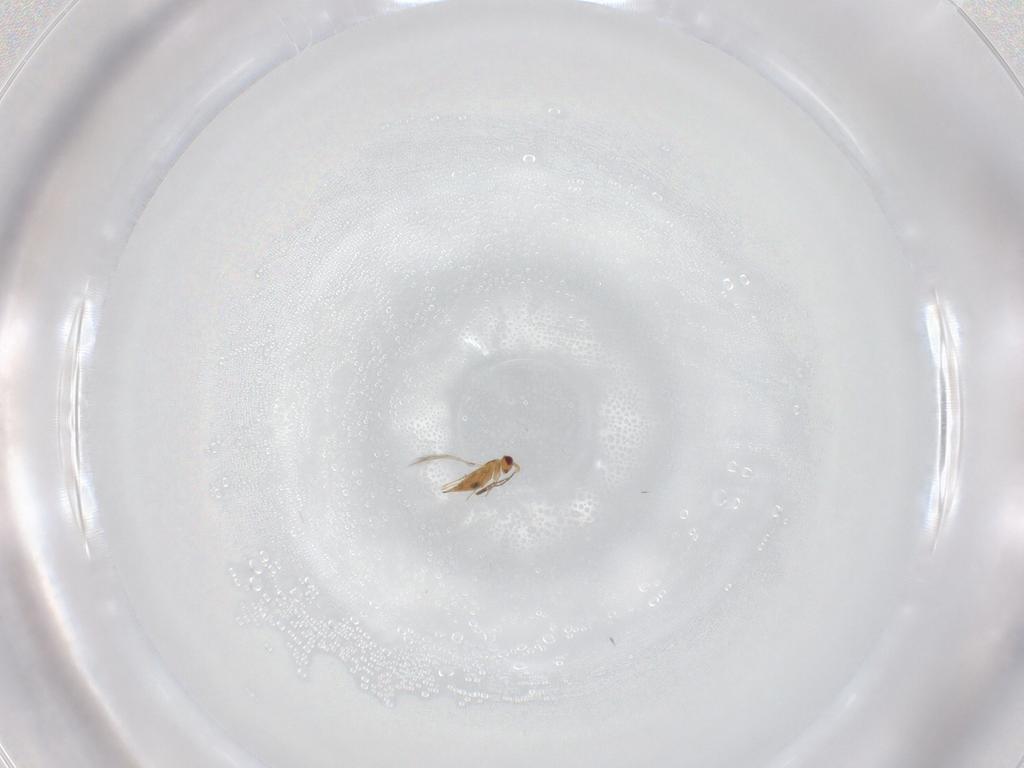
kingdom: Animalia
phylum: Arthropoda
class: Insecta
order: Hymenoptera
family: Mymaridae
